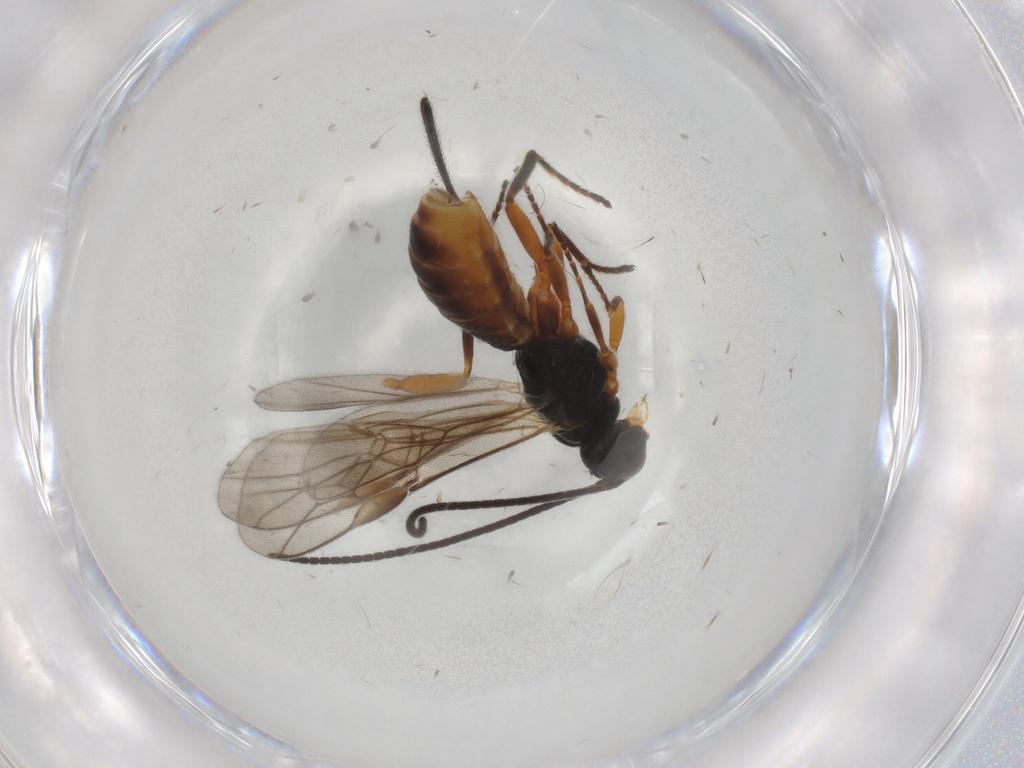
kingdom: Animalia
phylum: Arthropoda
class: Insecta
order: Hymenoptera
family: Braconidae
